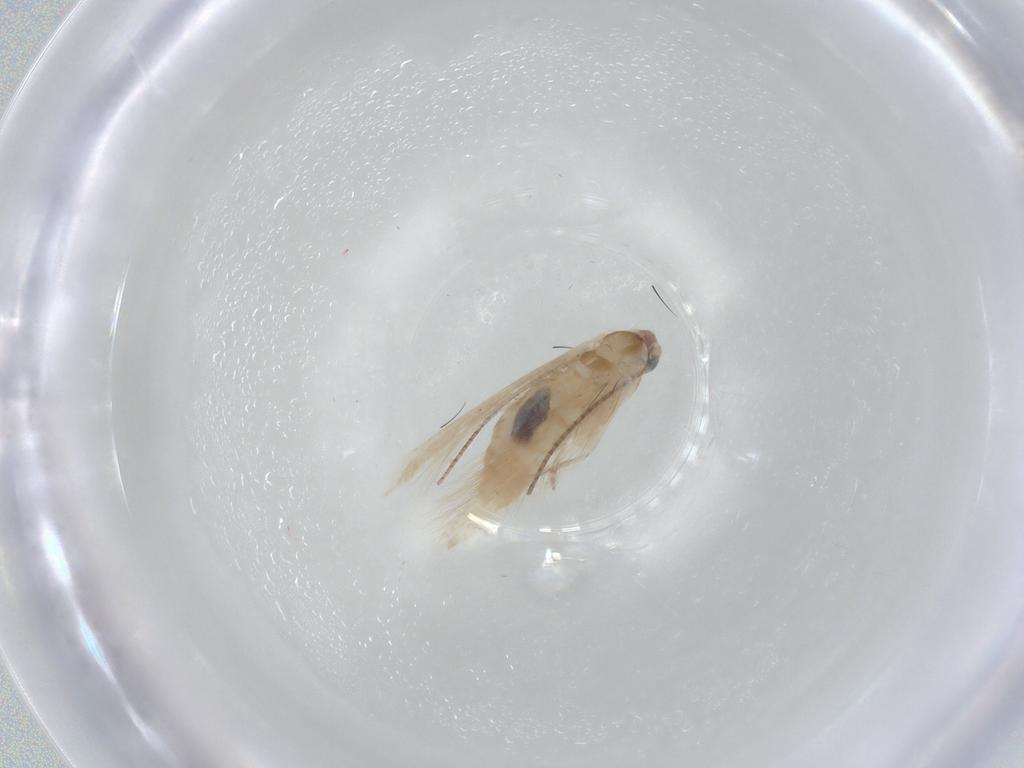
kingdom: Animalia
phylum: Arthropoda
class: Insecta
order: Lepidoptera
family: Bucculatricidae
